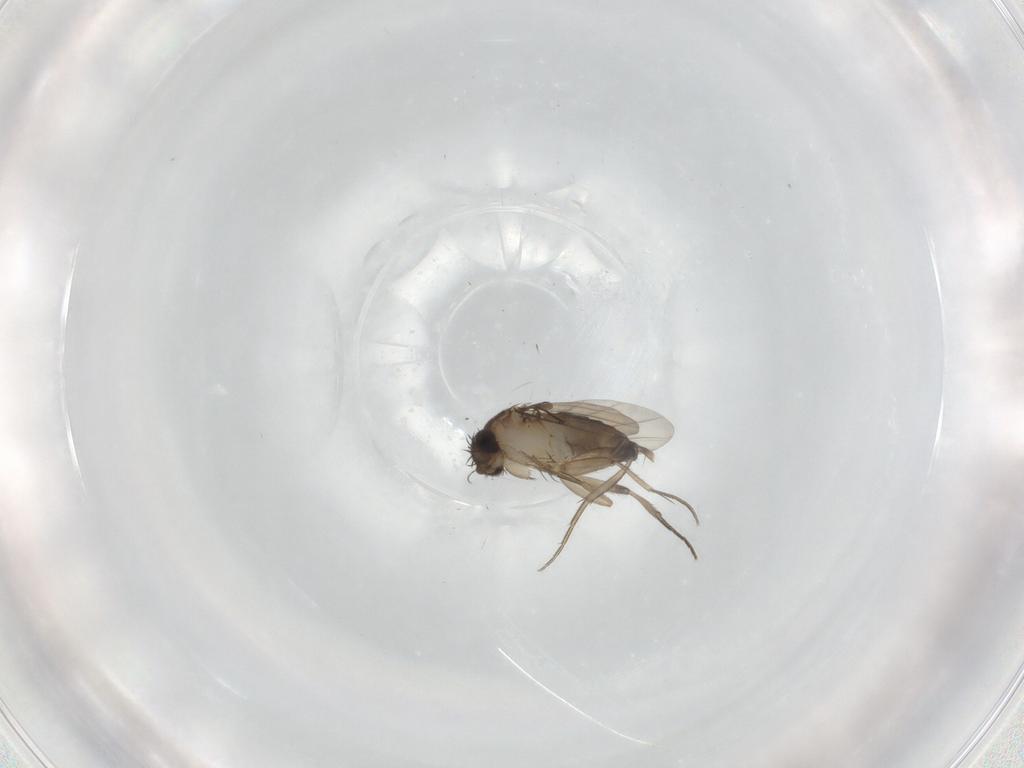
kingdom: Animalia
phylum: Arthropoda
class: Insecta
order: Diptera
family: Phoridae
